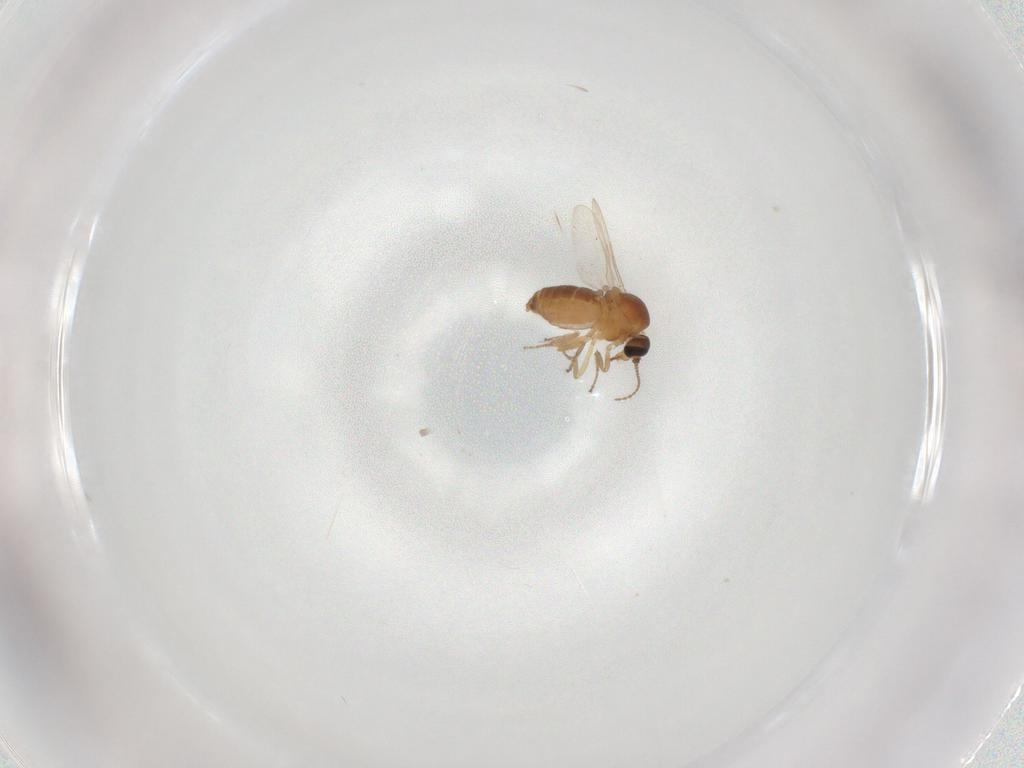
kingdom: Animalia
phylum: Arthropoda
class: Insecta
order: Diptera
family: Ceratopogonidae
